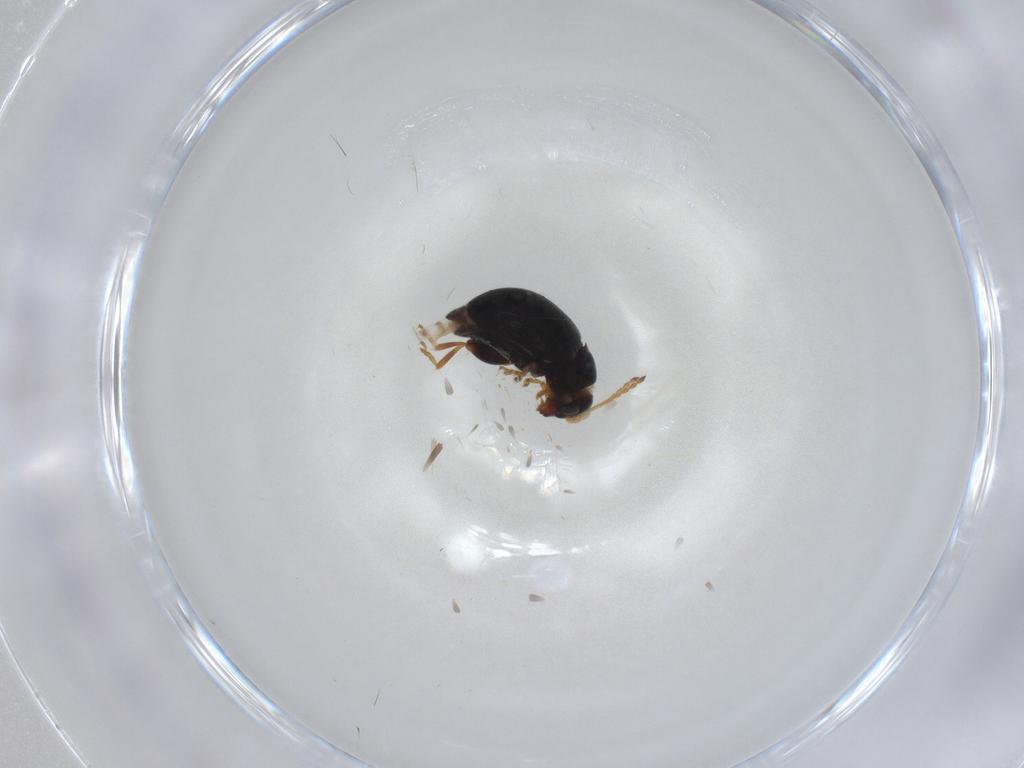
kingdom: Animalia
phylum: Arthropoda
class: Insecta
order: Coleoptera
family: Chrysomelidae
